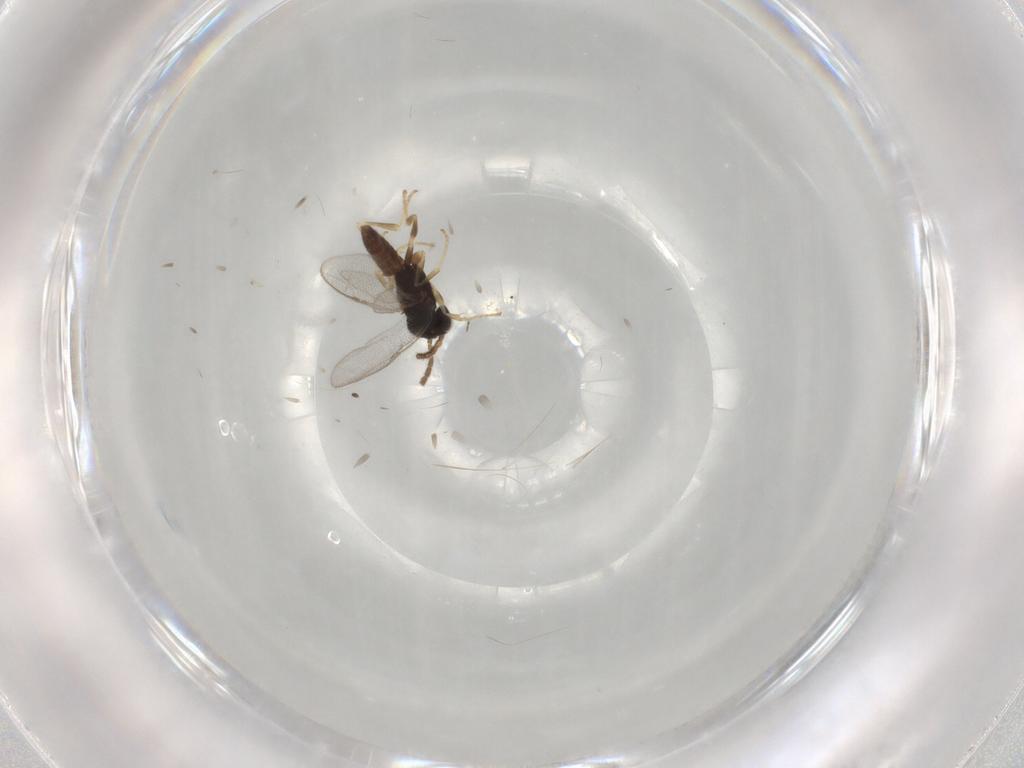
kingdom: Animalia
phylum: Arthropoda
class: Insecta
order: Hymenoptera
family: Dryinidae
